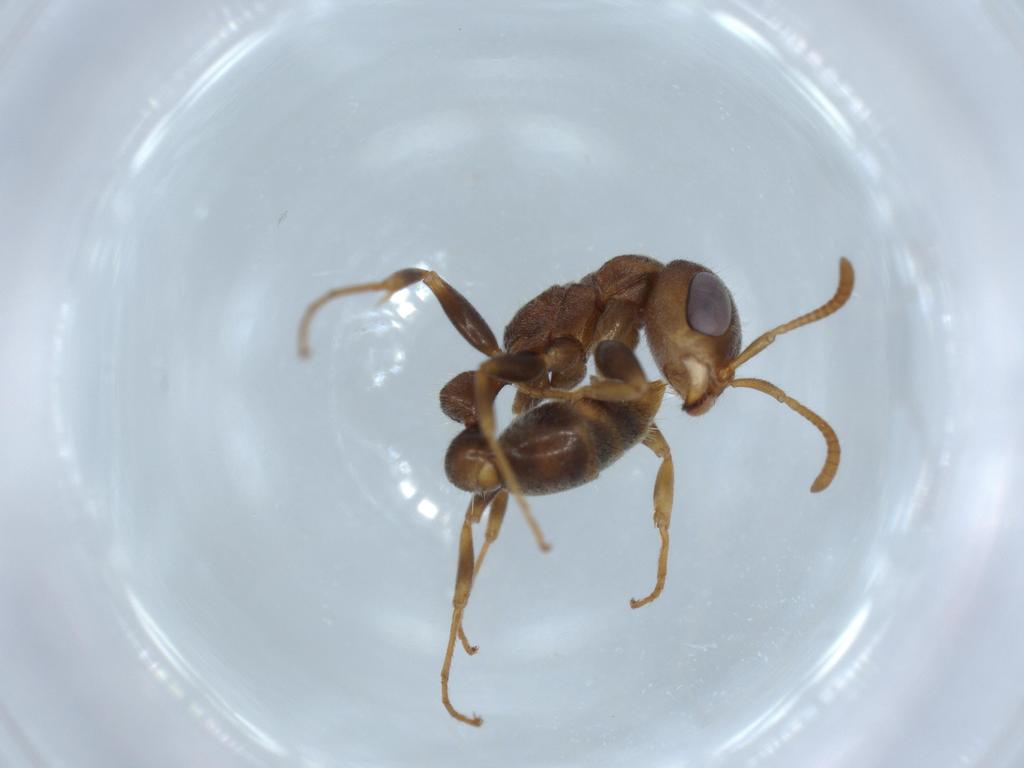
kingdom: Animalia
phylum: Arthropoda
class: Insecta
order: Hymenoptera
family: Formicidae
